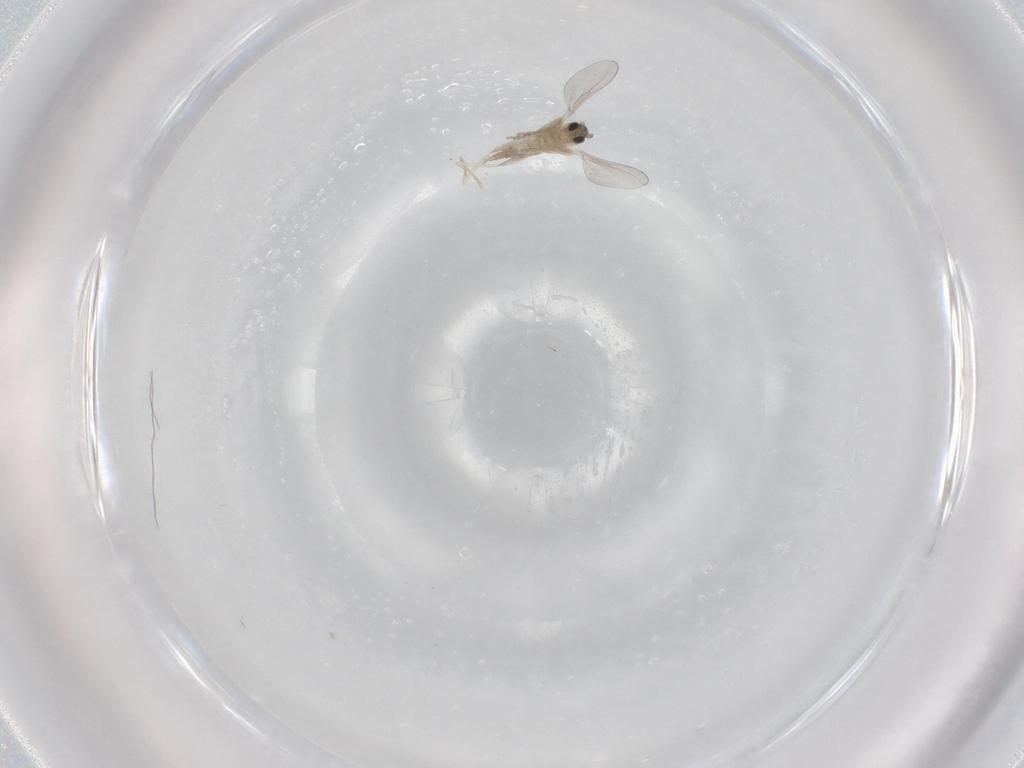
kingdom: Animalia
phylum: Arthropoda
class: Insecta
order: Diptera
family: Cecidomyiidae
